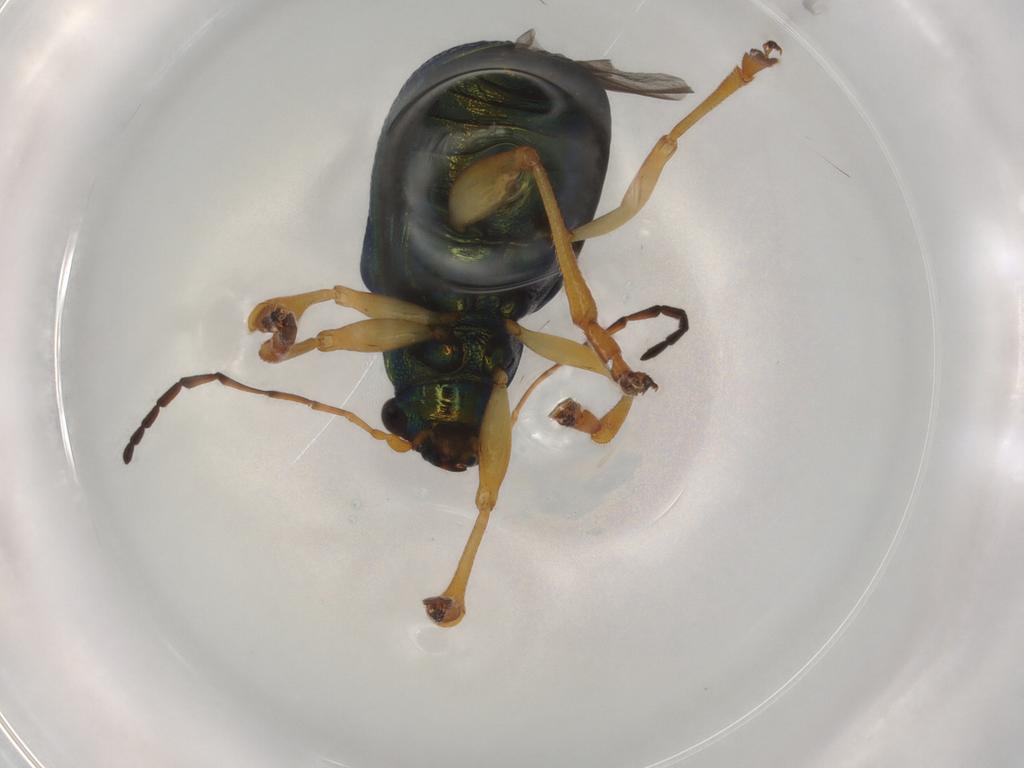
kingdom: Animalia
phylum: Arthropoda
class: Insecta
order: Coleoptera
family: Chrysomelidae
